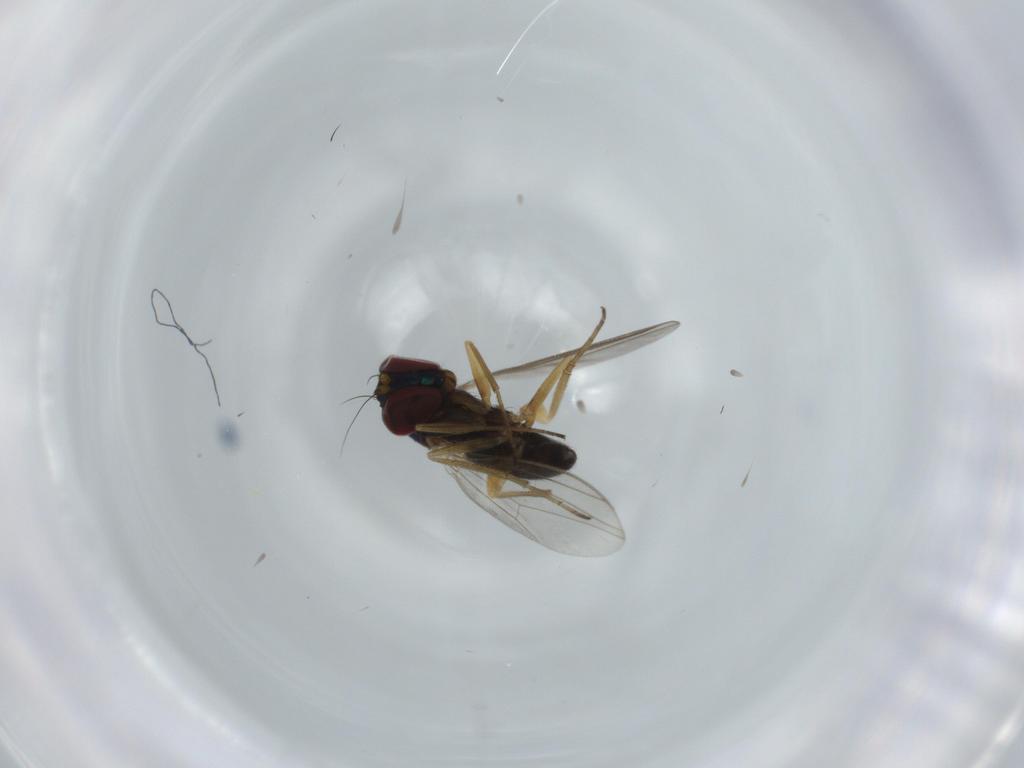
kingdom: Animalia
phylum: Arthropoda
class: Insecta
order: Diptera
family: Dolichopodidae
